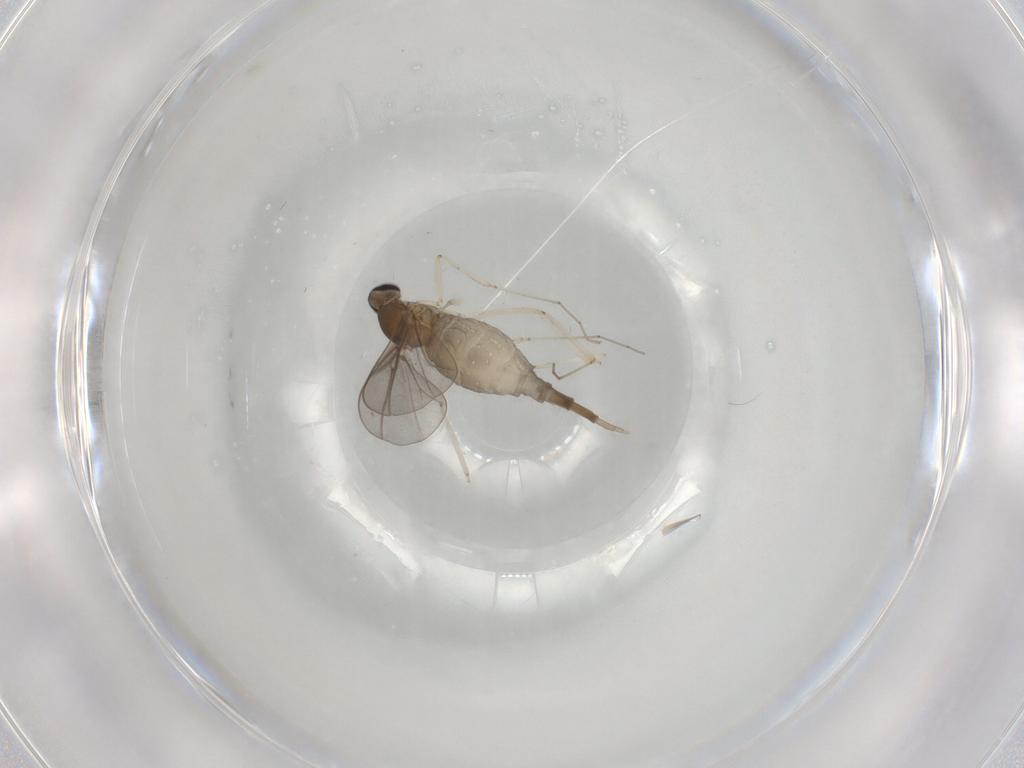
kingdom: Animalia
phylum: Arthropoda
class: Insecta
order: Diptera
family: Cecidomyiidae
